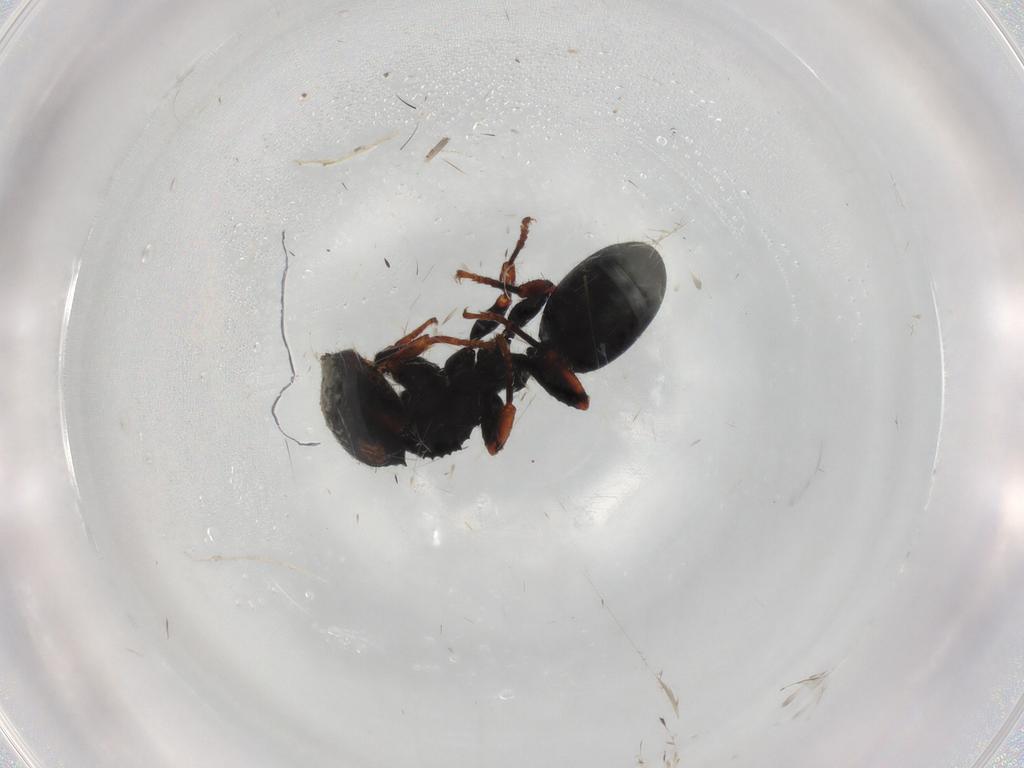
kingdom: Animalia
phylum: Arthropoda
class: Insecta
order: Hymenoptera
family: Formicidae
